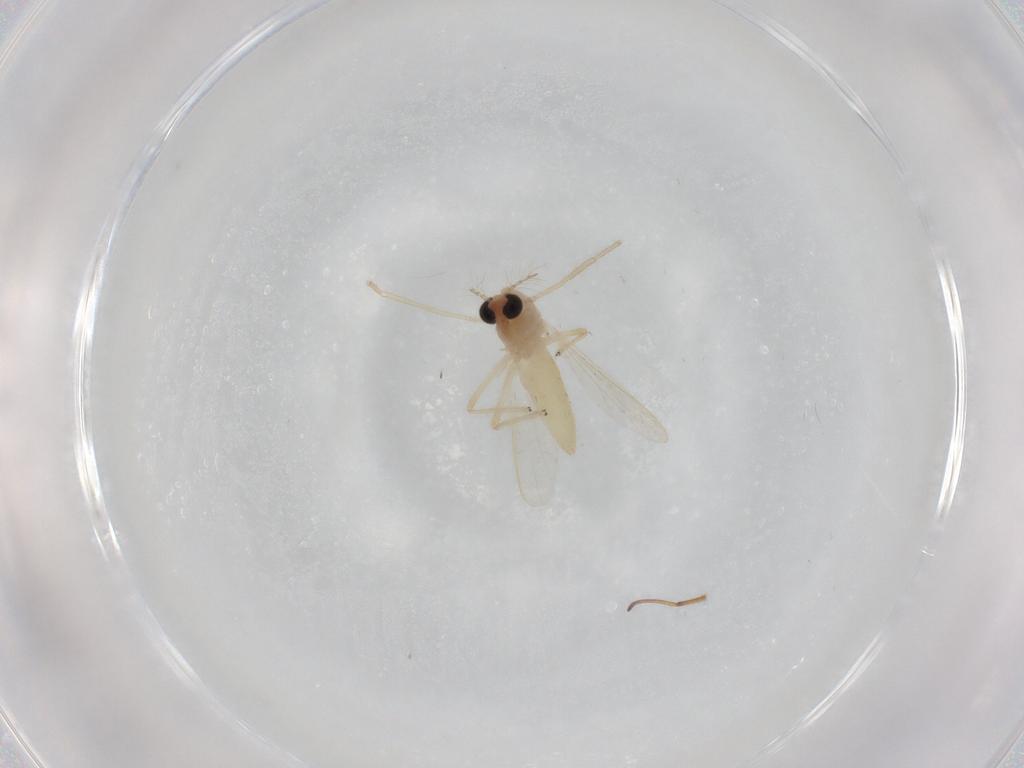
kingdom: Animalia
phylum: Arthropoda
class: Insecta
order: Diptera
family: Chironomidae
